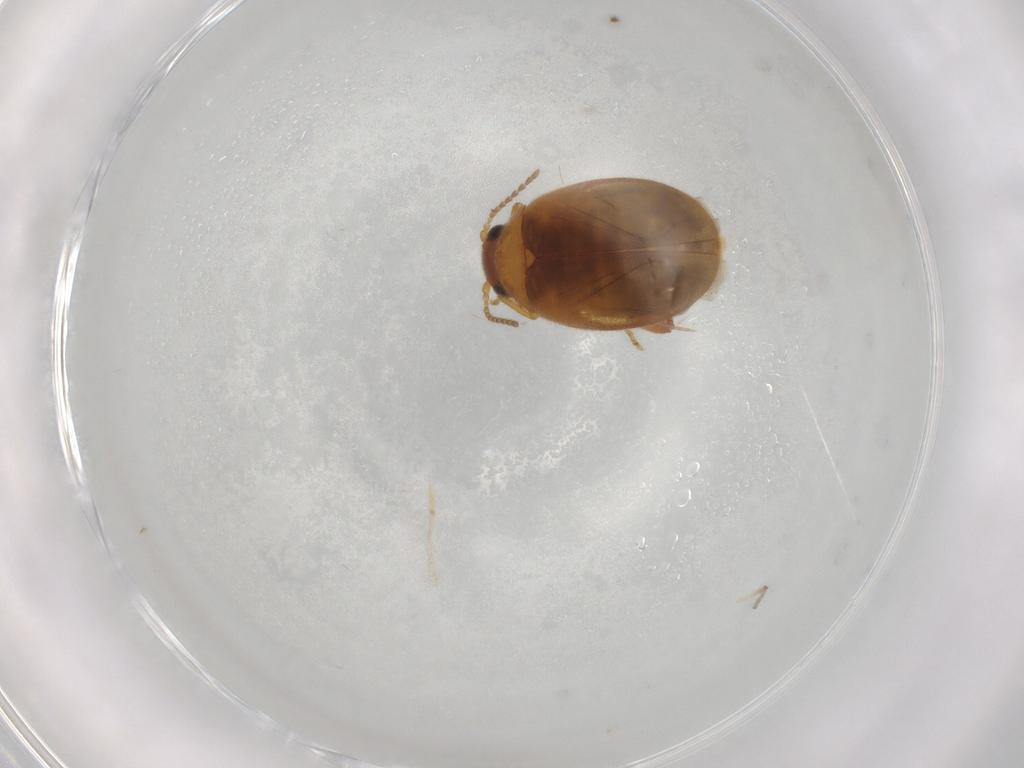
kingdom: Animalia
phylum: Arthropoda
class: Insecta
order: Coleoptera
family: Scirtidae
